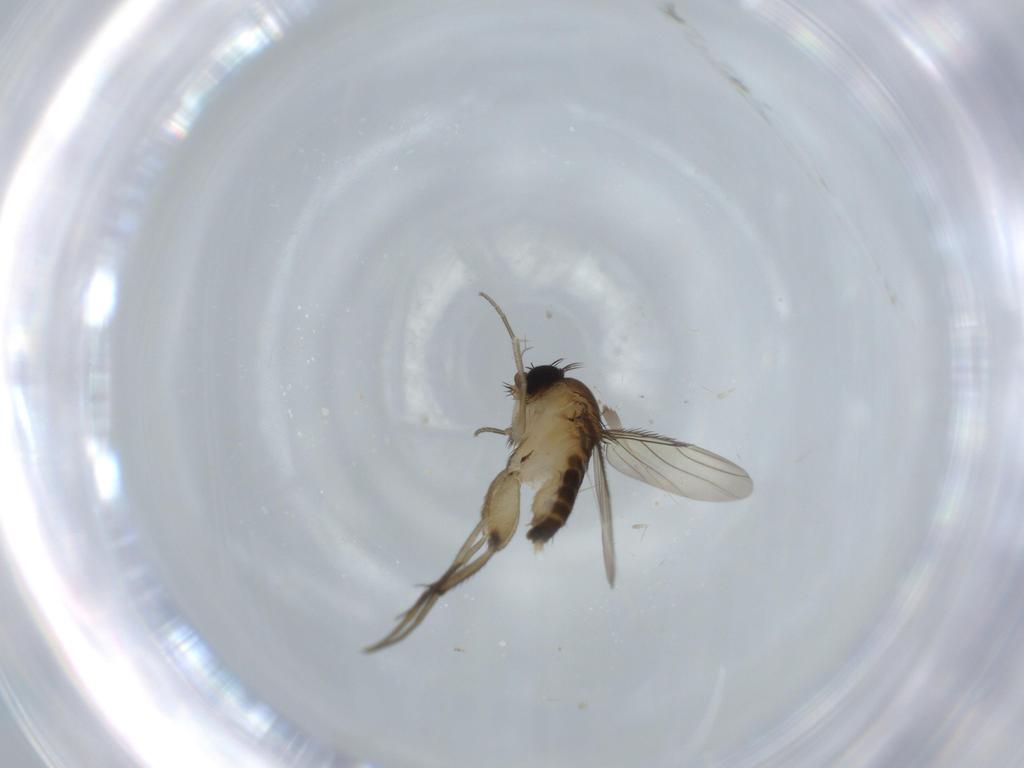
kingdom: Animalia
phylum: Arthropoda
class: Insecta
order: Diptera
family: Phoridae
